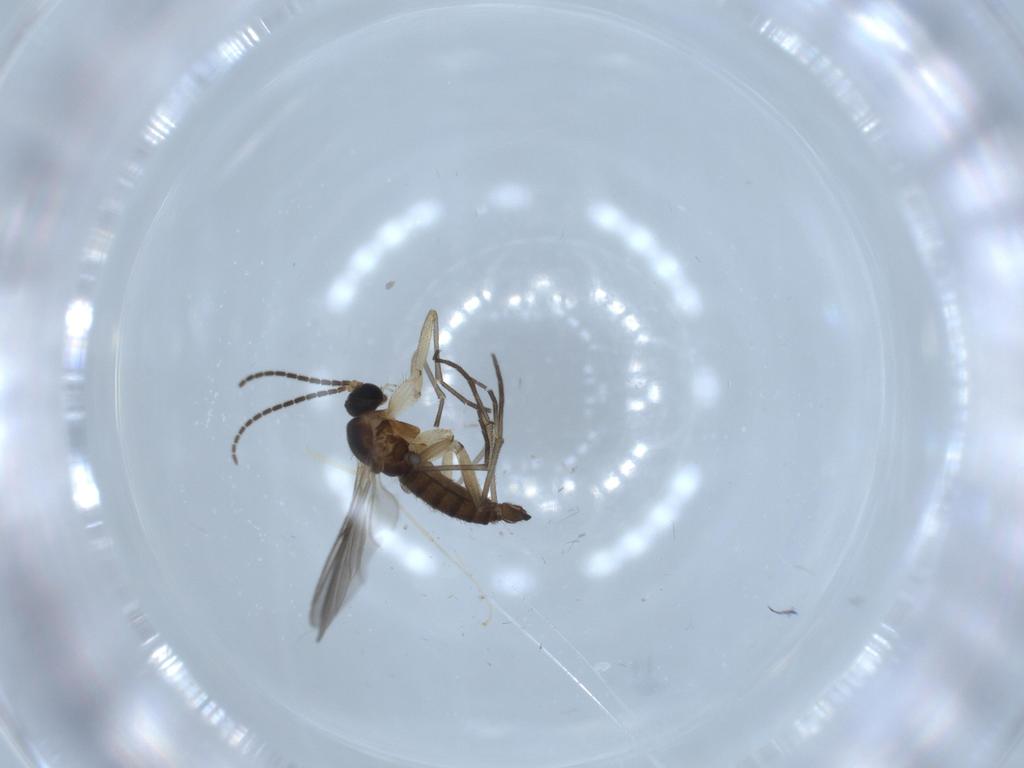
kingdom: Animalia
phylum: Arthropoda
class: Insecta
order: Diptera
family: Sciaridae
